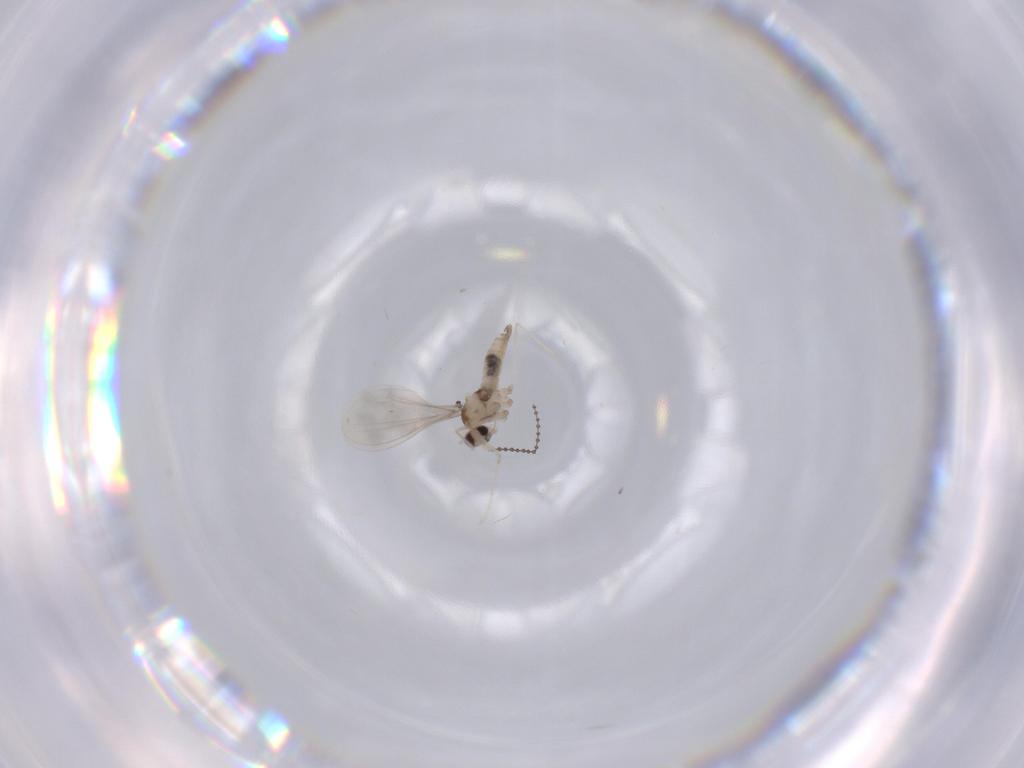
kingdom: Animalia
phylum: Arthropoda
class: Insecta
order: Diptera
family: Cecidomyiidae
